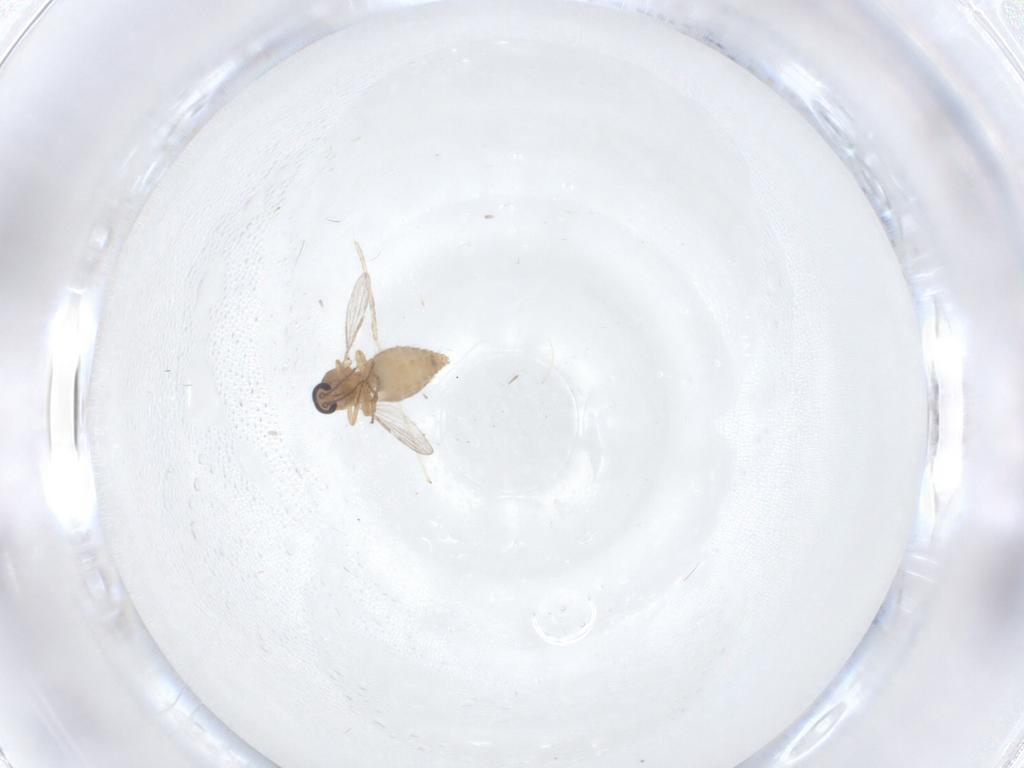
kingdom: Animalia
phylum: Arthropoda
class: Insecta
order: Diptera
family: Cecidomyiidae
